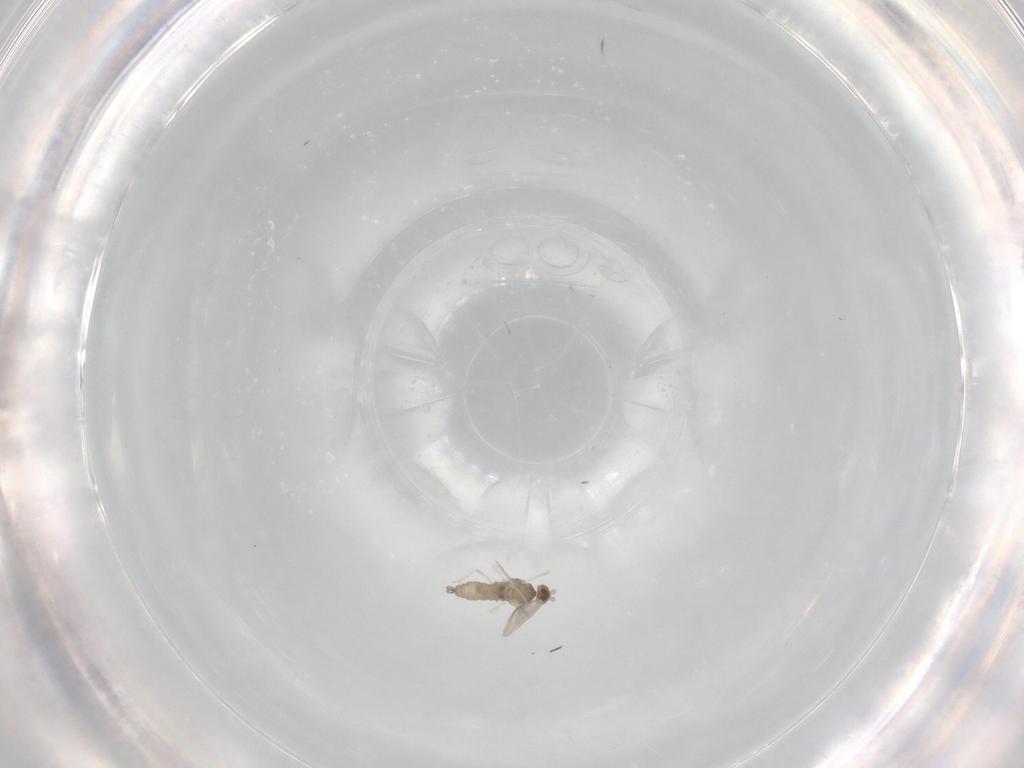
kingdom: Animalia
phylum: Arthropoda
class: Insecta
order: Diptera
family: Cecidomyiidae
